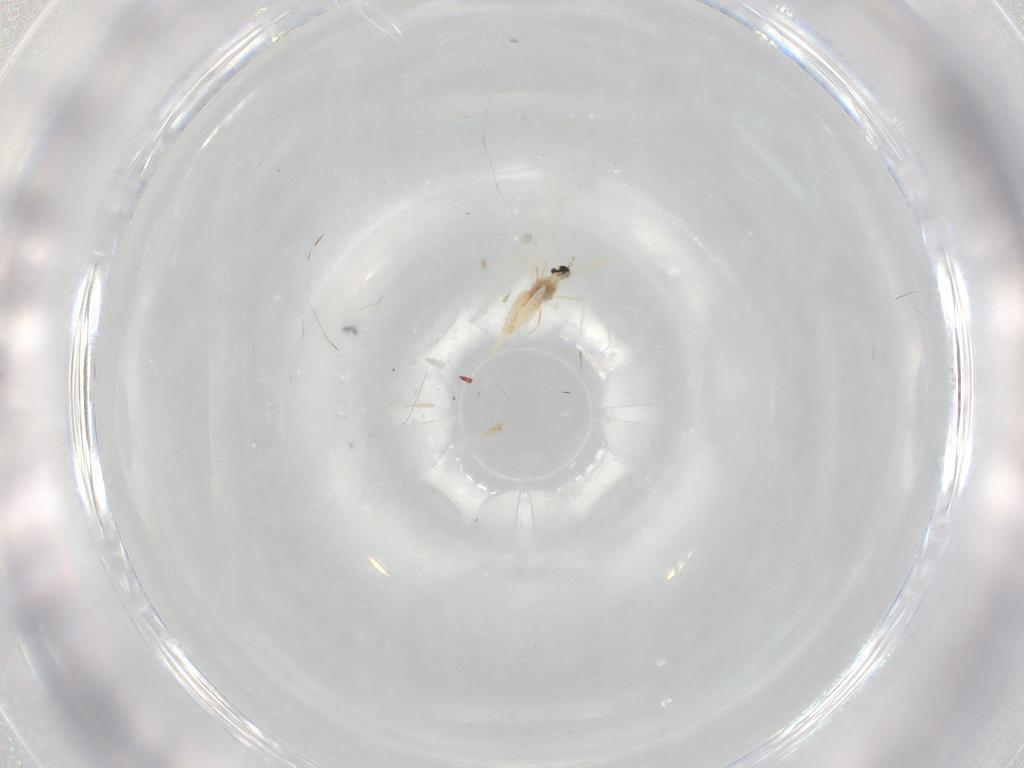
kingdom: Animalia
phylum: Arthropoda
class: Insecta
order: Diptera
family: Cecidomyiidae
